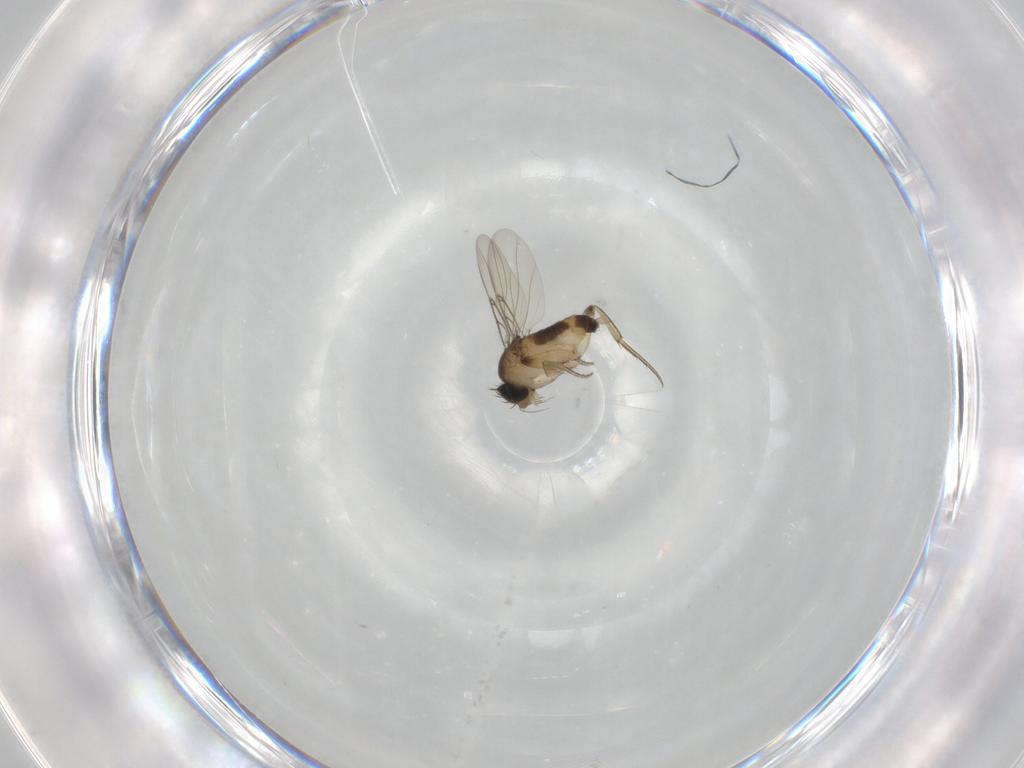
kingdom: Animalia
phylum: Arthropoda
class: Insecta
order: Diptera
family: Phoridae
